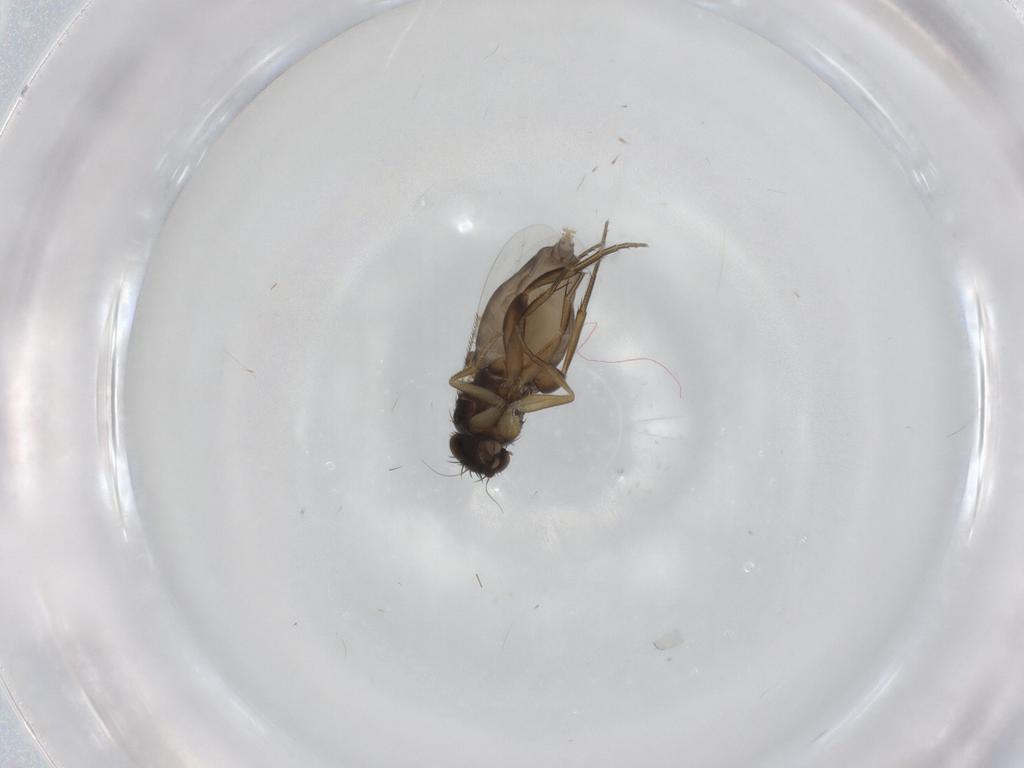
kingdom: Animalia
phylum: Arthropoda
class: Insecta
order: Diptera
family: Phoridae
